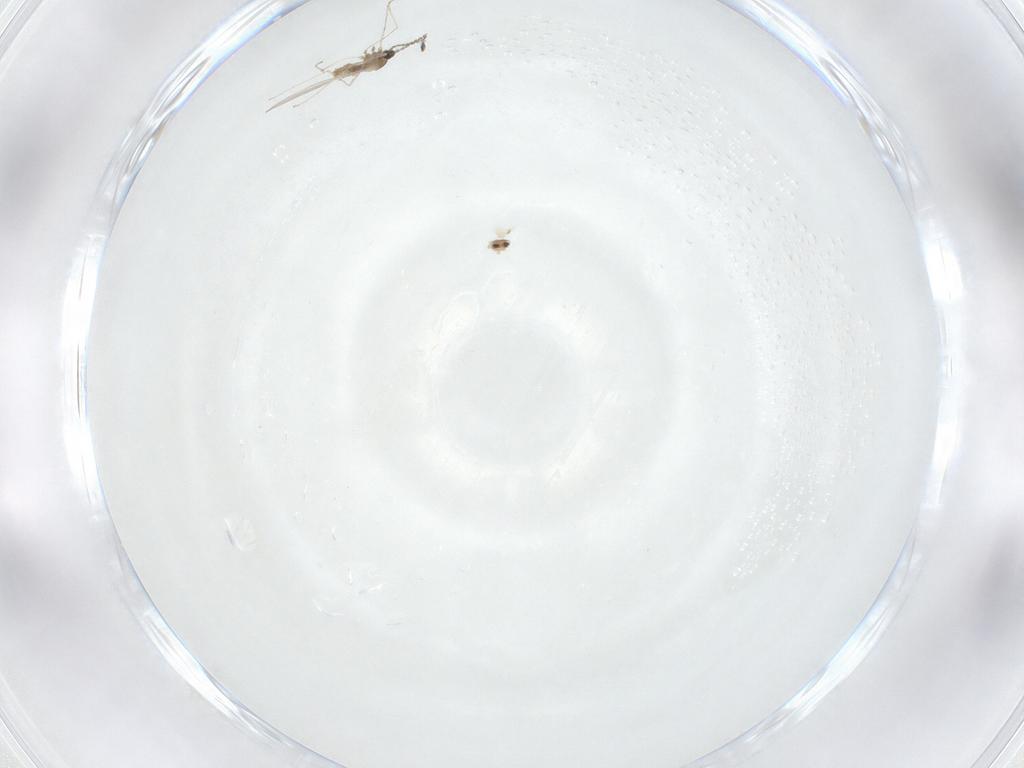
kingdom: Animalia
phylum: Arthropoda
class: Insecta
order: Diptera
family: Cecidomyiidae
